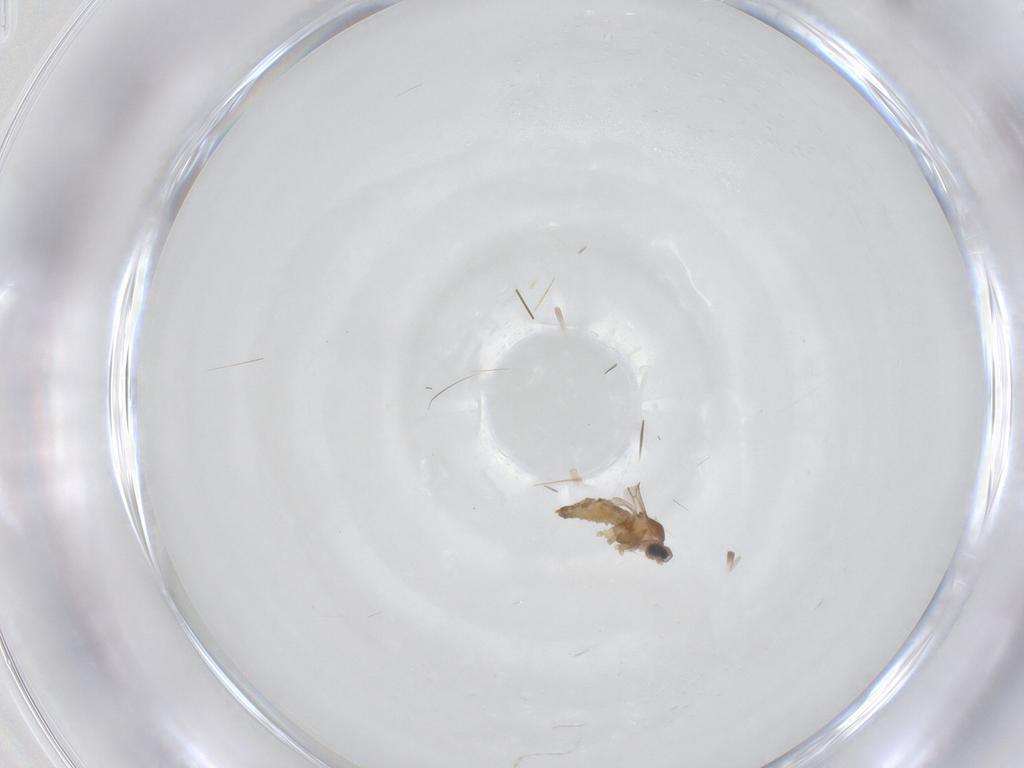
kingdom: Animalia
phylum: Arthropoda
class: Insecta
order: Diptera
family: Cecidomyiidae
